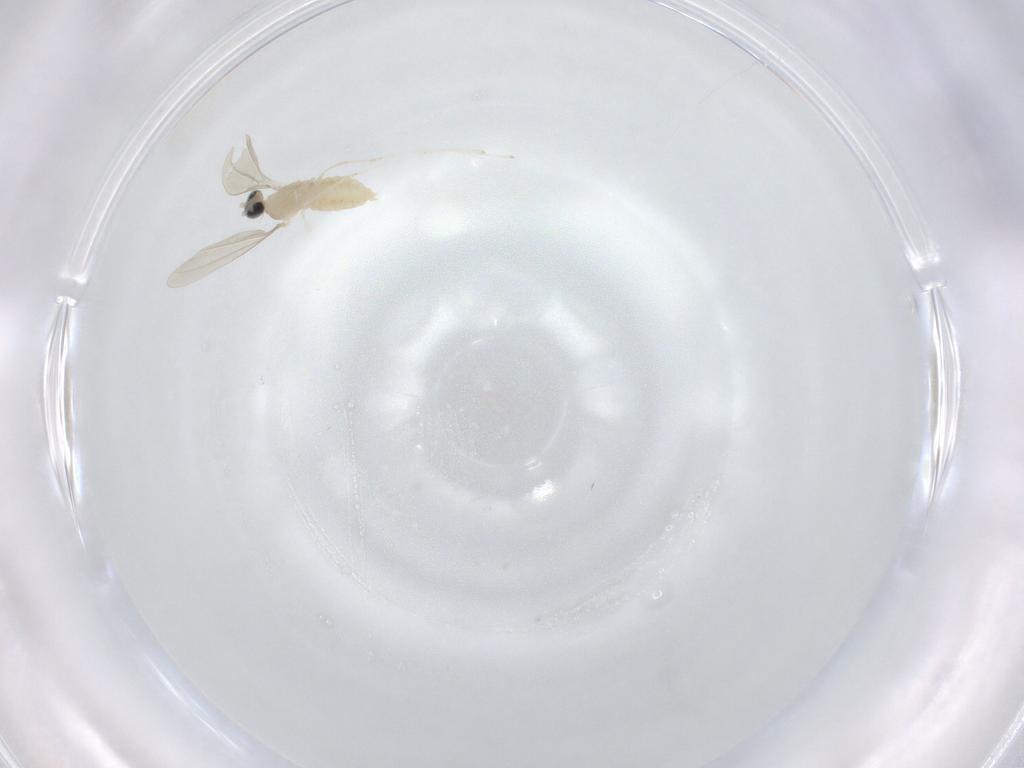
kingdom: Animalia
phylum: Arthropoda
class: Insecta
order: Diptera
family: Cecidomyiidae
